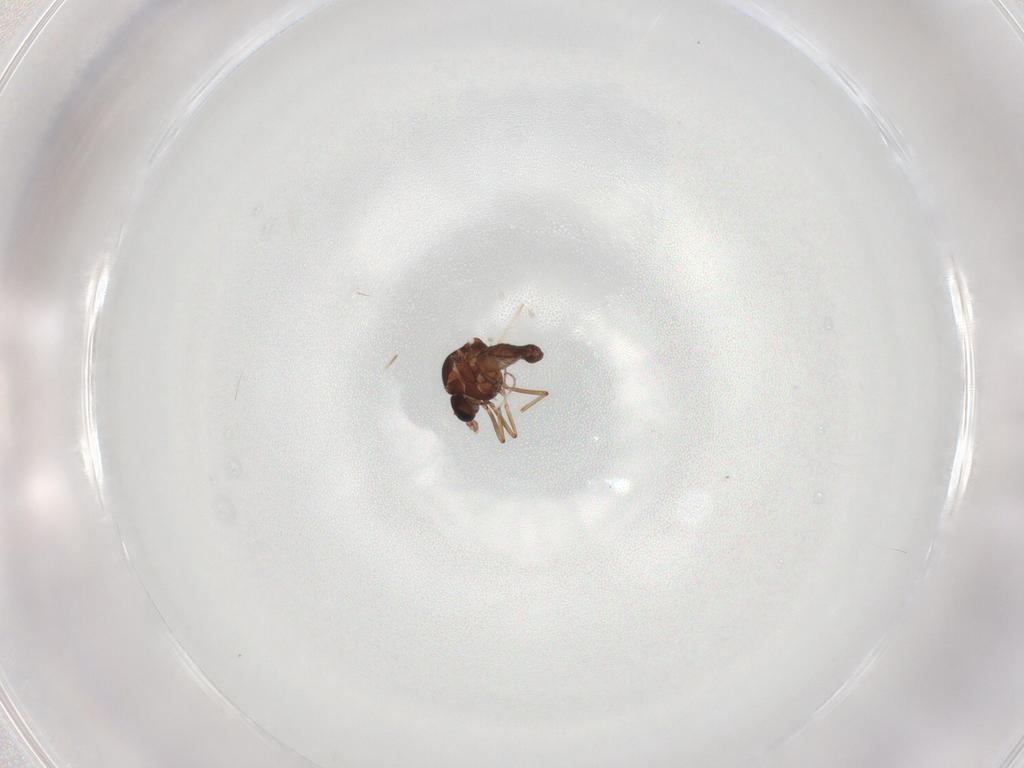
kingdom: Animalia
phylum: Arthropoda
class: Insecta
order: Diptera
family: Ceratopogonidae
